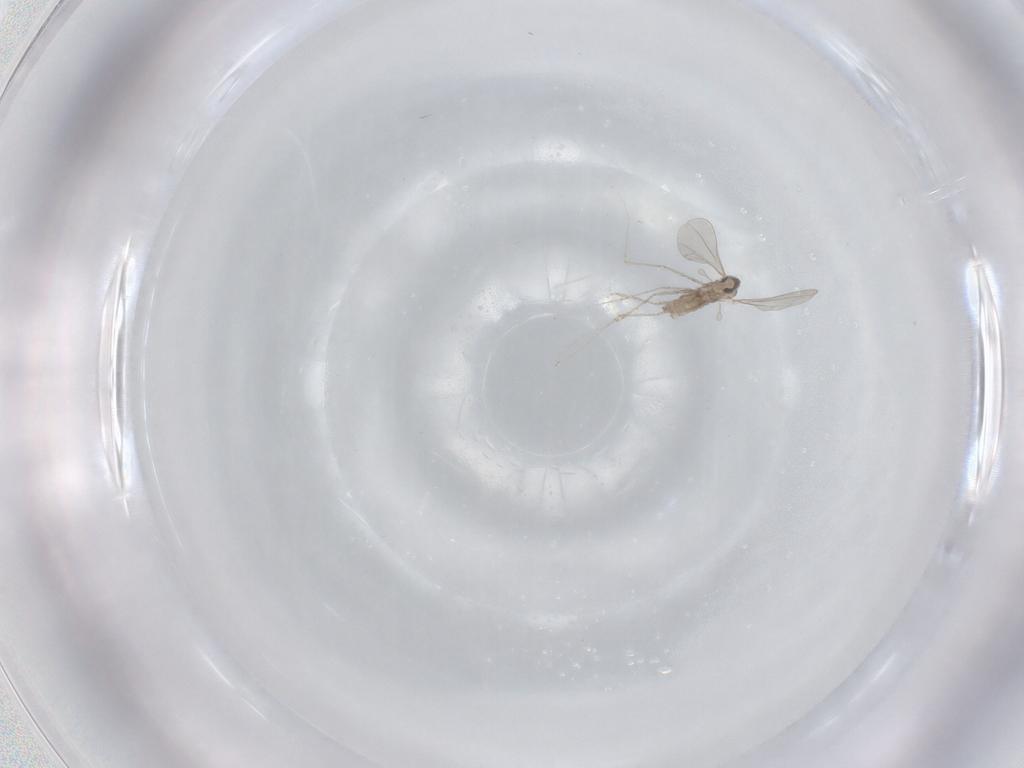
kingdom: Animalia
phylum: Arthropoda
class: Insecta
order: Diptera
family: Cecidomyiidae
